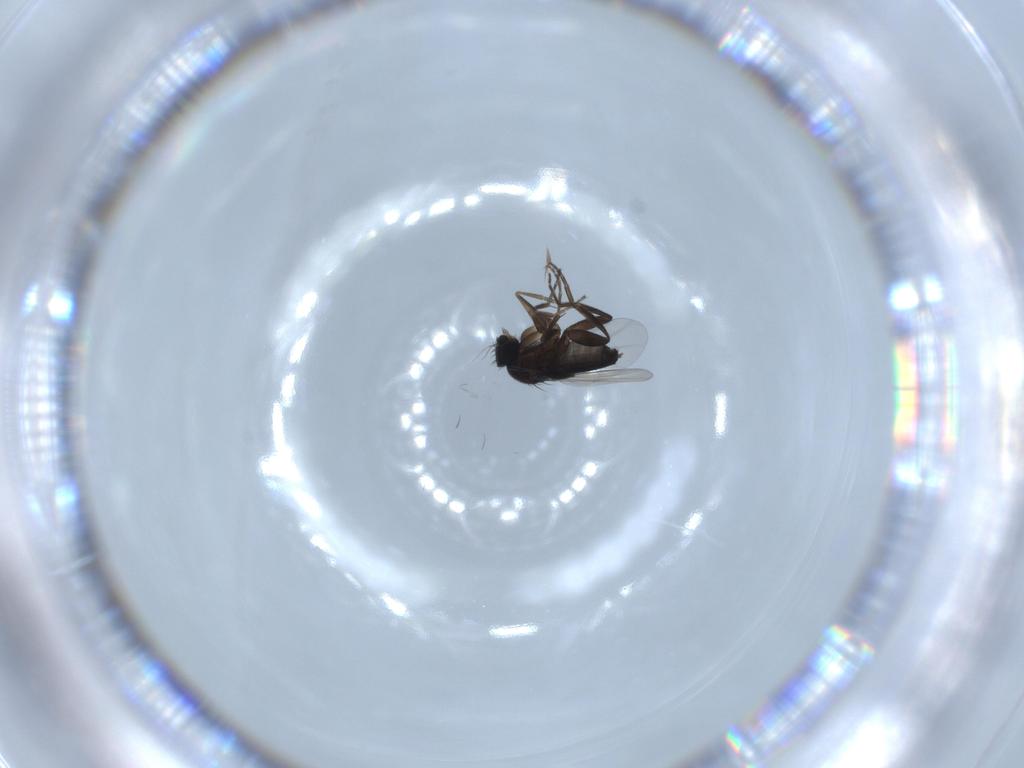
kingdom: Animalia
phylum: Arthropoda
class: Insecta
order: Diptera
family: Phoridae
